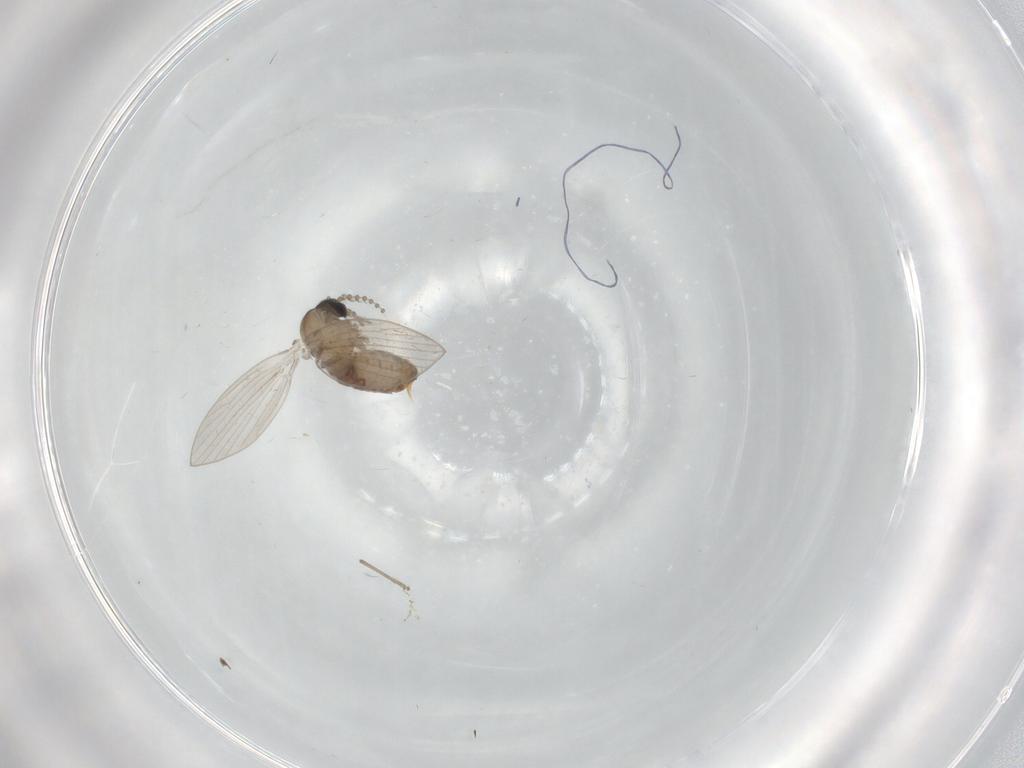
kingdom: Animalia
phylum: Arthropoda
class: Insecta
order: Diptera
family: Psychodidae
